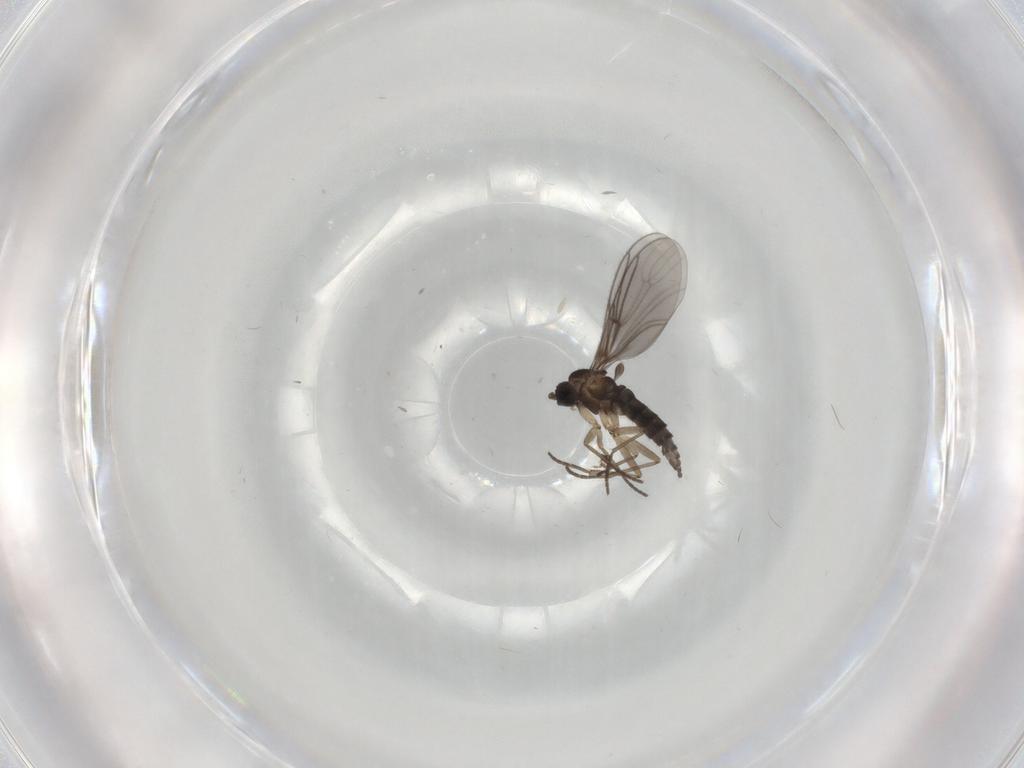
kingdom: Animalia
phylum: Arthropoda
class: Insecta
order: Diptera
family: Sciaridae
